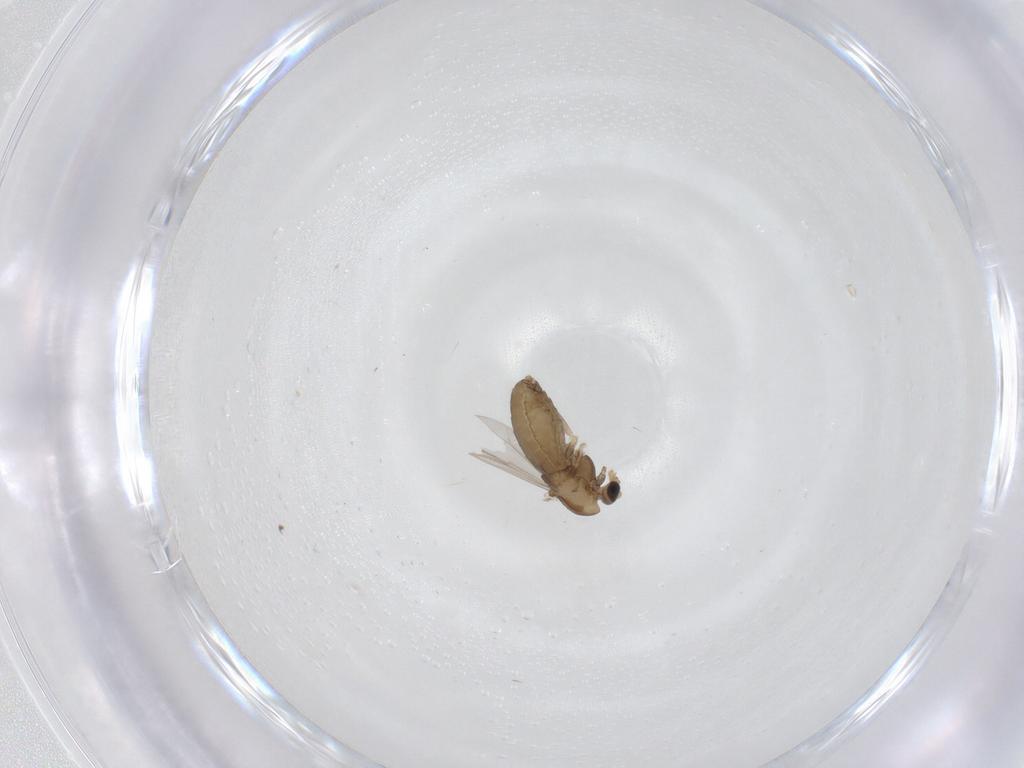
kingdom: Animalia
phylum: Arthropoda
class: Insecta
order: Diptera
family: Chironomidae
